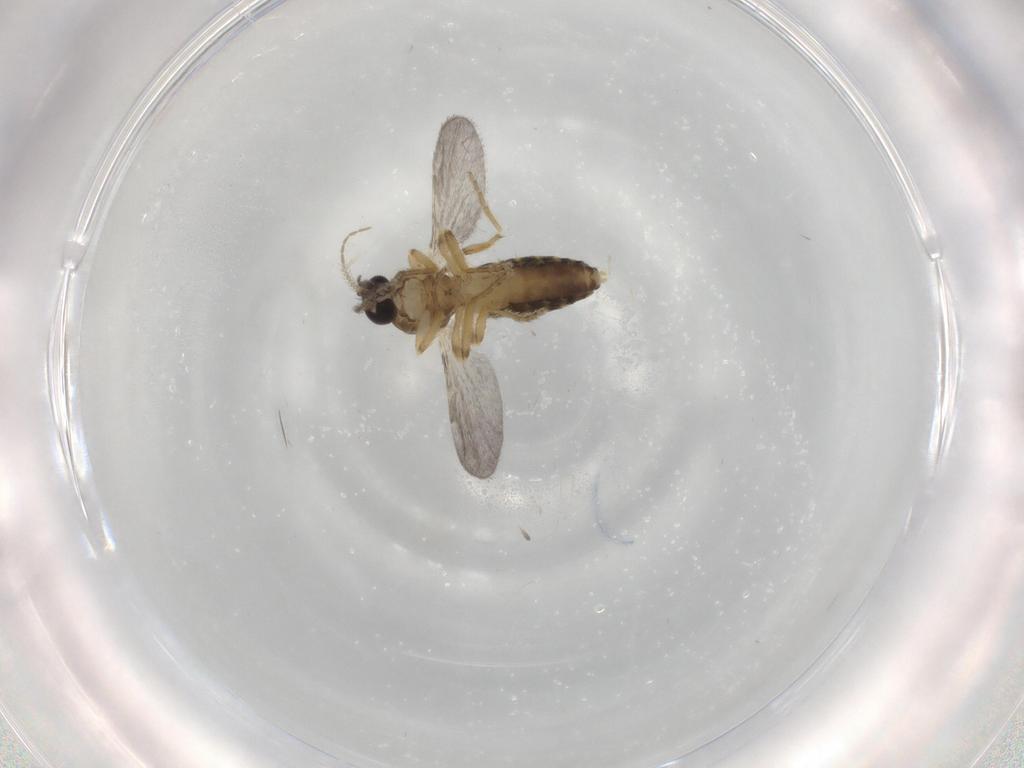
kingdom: Animalia
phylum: Arthropoda
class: Insecta
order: Diptera
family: Ceratopogonidae
